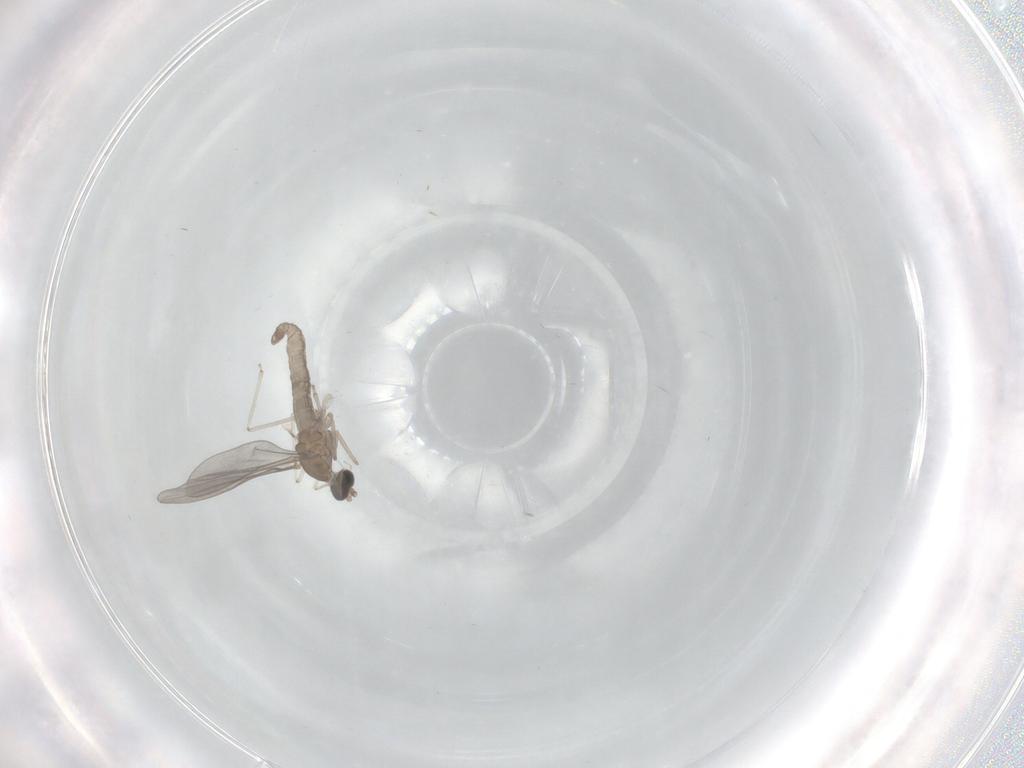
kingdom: Animalia
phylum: Arthropoda
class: Insecta
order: Diptera
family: Cecidomyiidae
